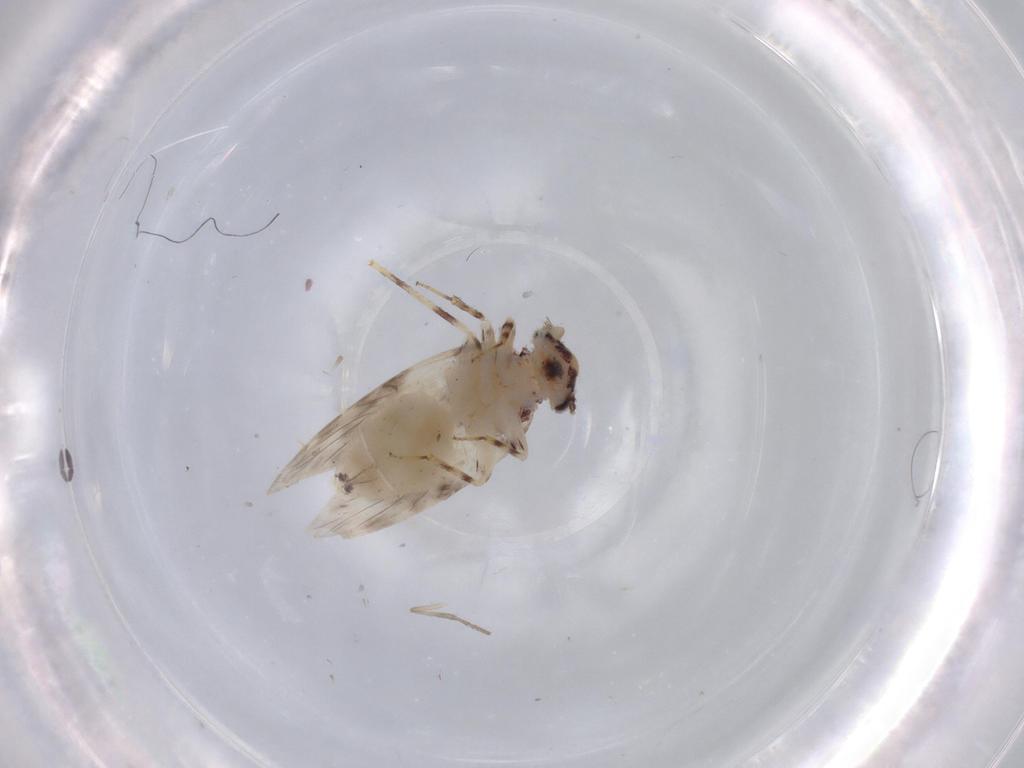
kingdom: Animalia
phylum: Arthropoda
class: Insecta
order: Psocodea
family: Lepidopsocidae
